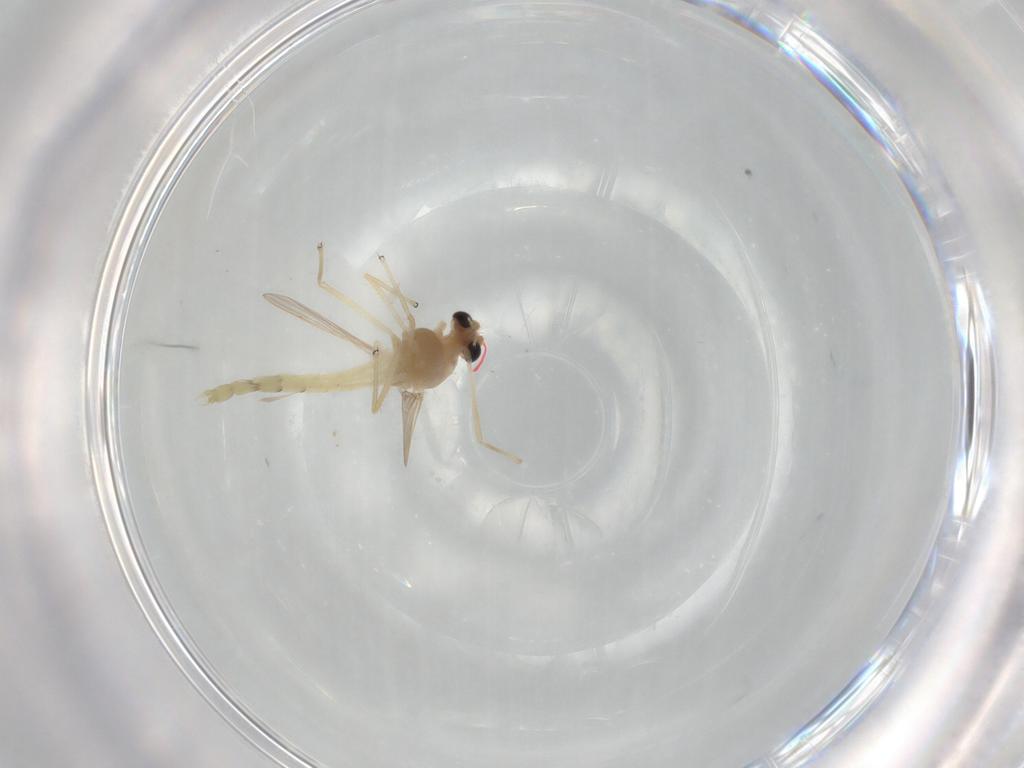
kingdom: Animalia
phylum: Arthropoda
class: Insecta
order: Diptera
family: Chironomidae
